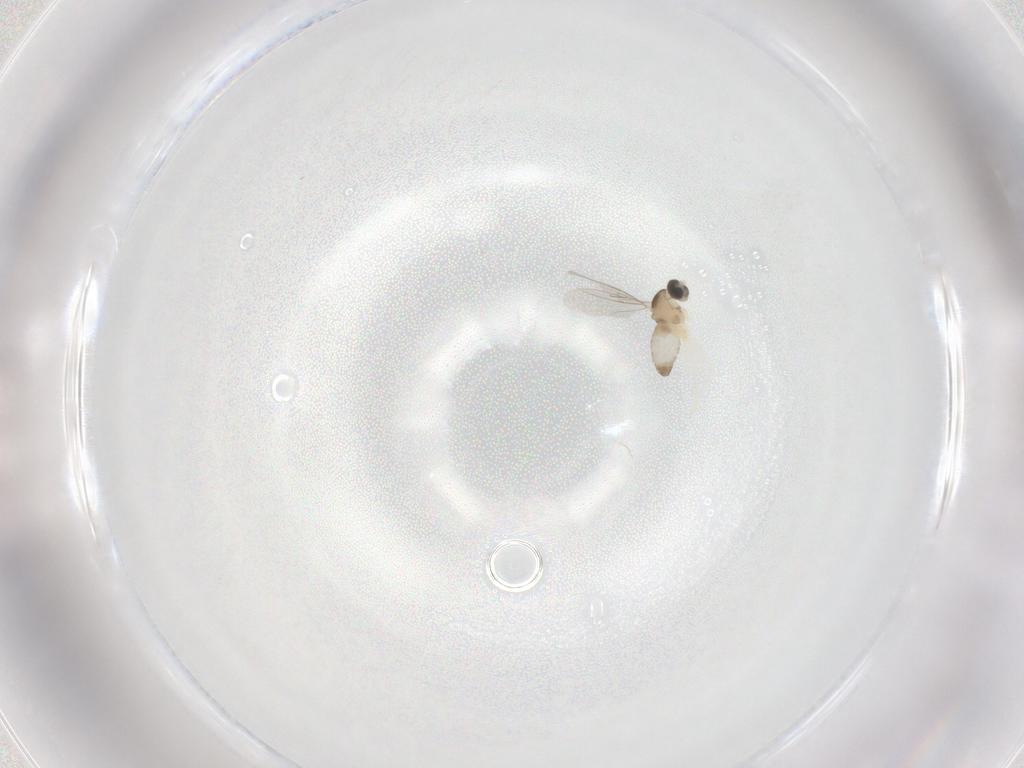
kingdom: Animalia
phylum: Arthropoda
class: Insecta
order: Diptera
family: Cecidomyiidae
